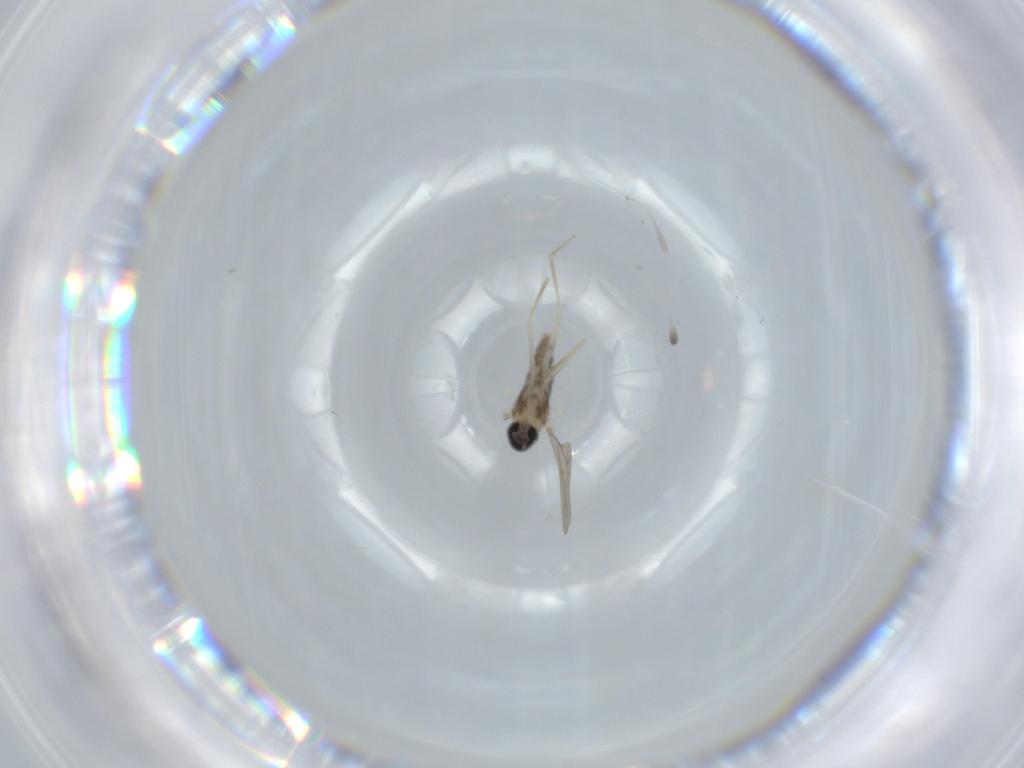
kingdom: Animalia
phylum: Arthropoda
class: Insecta
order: Diptera
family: Cecidomyiidae
